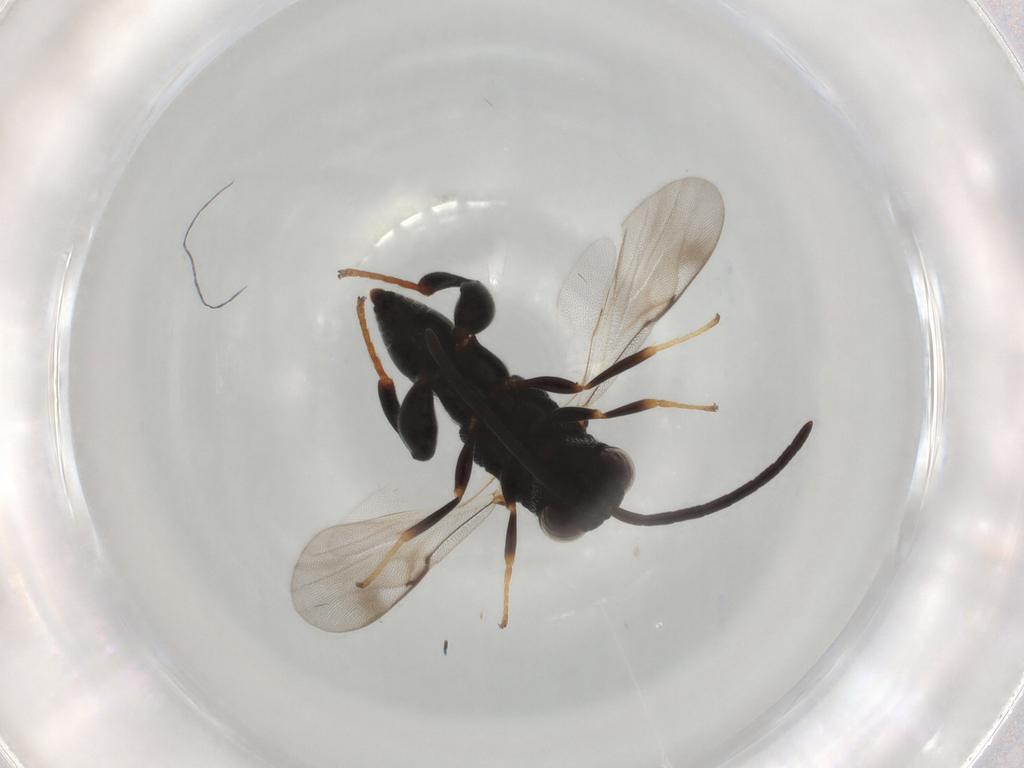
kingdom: Animalia
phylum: Arthropoda
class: Insecta
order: Hymenoptera
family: Chalcididae
